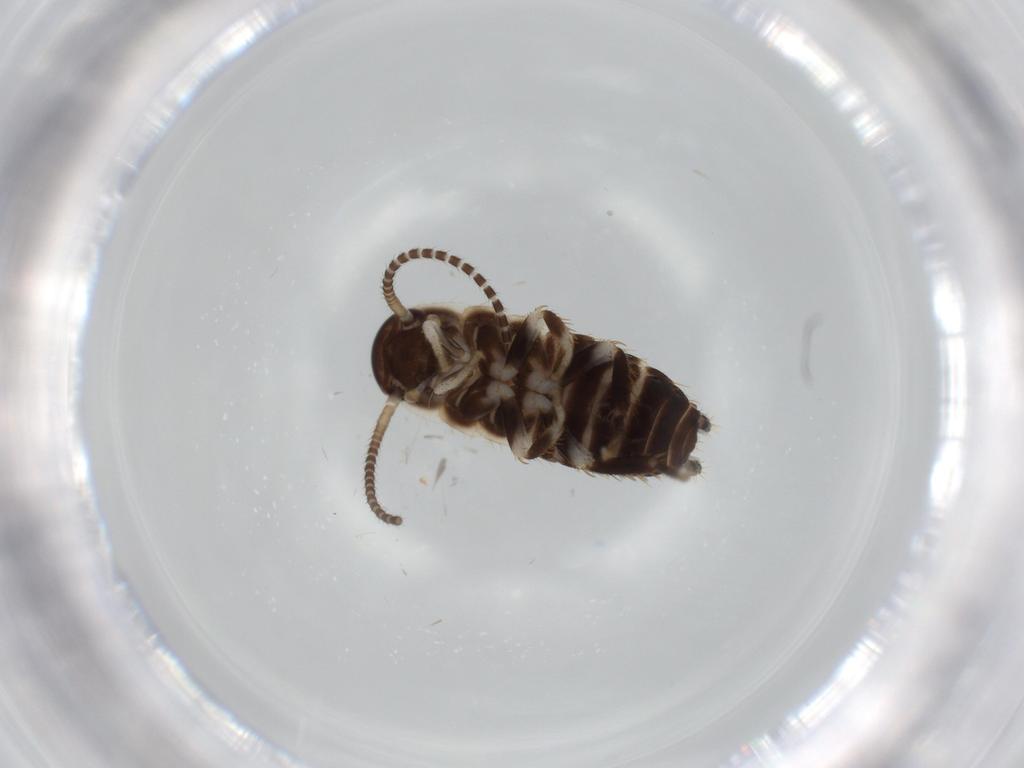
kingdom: Animalia
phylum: Arthropoda
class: Insecta
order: Blattodea
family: Ectobiidae
